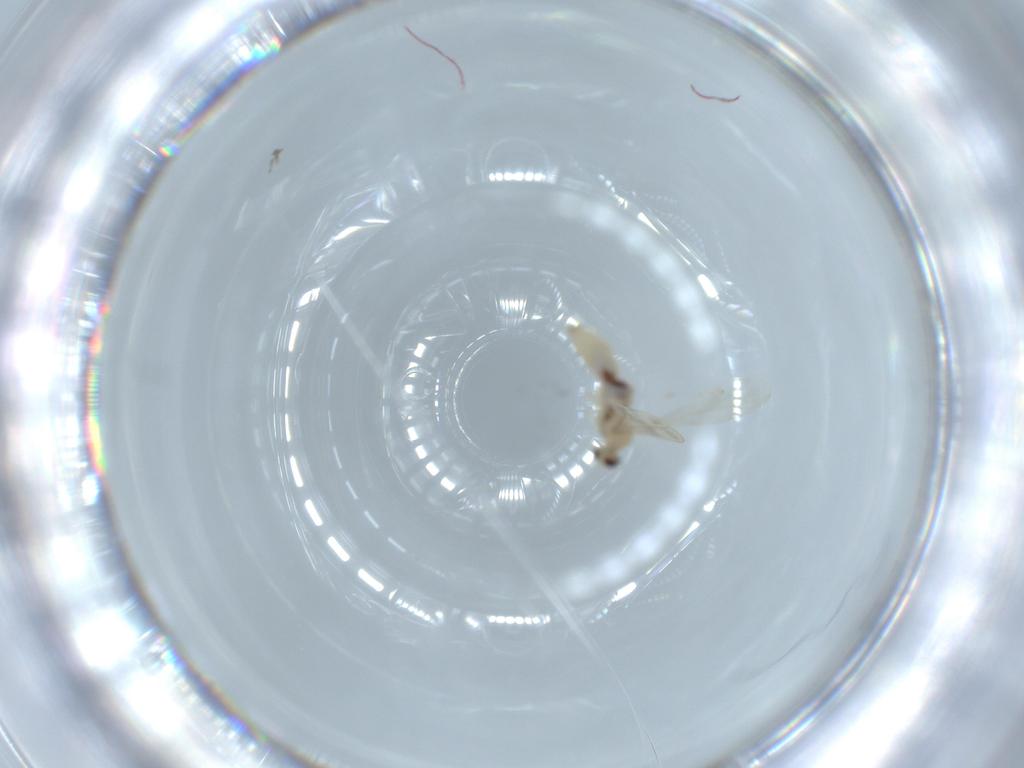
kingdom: Animalia
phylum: Arthropoda
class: Insecta
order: Diptera
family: Cecidomyiidae
